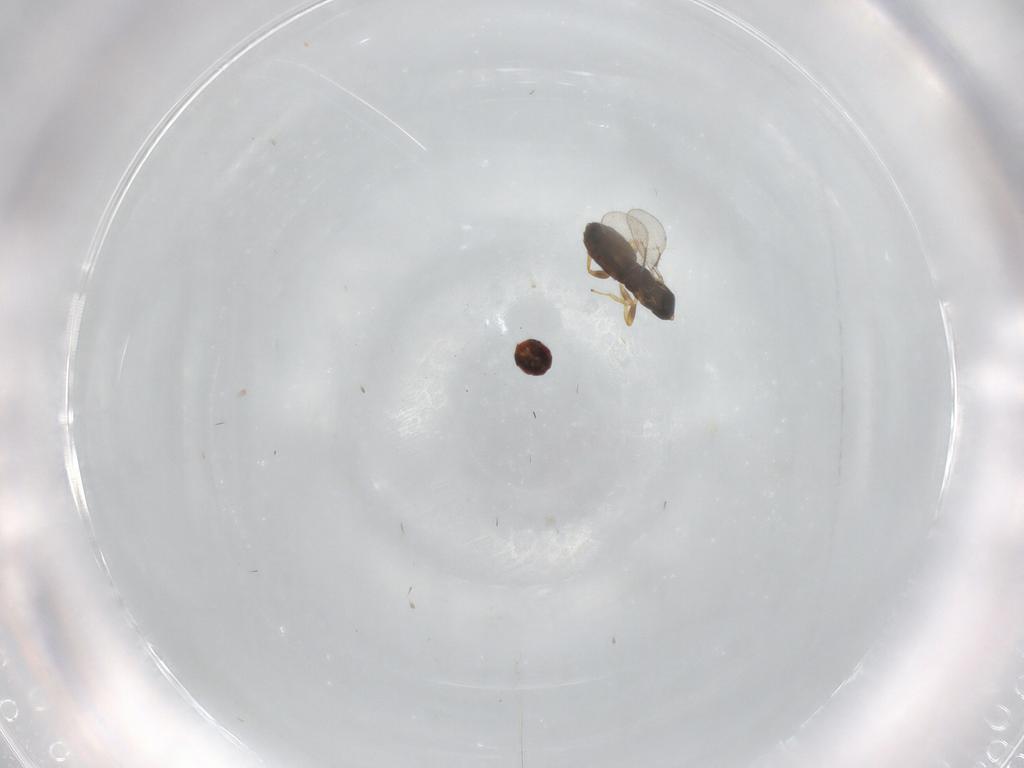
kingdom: Animalia
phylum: Arthropoda
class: Insecta
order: Hymenoptera
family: Eulophidae
